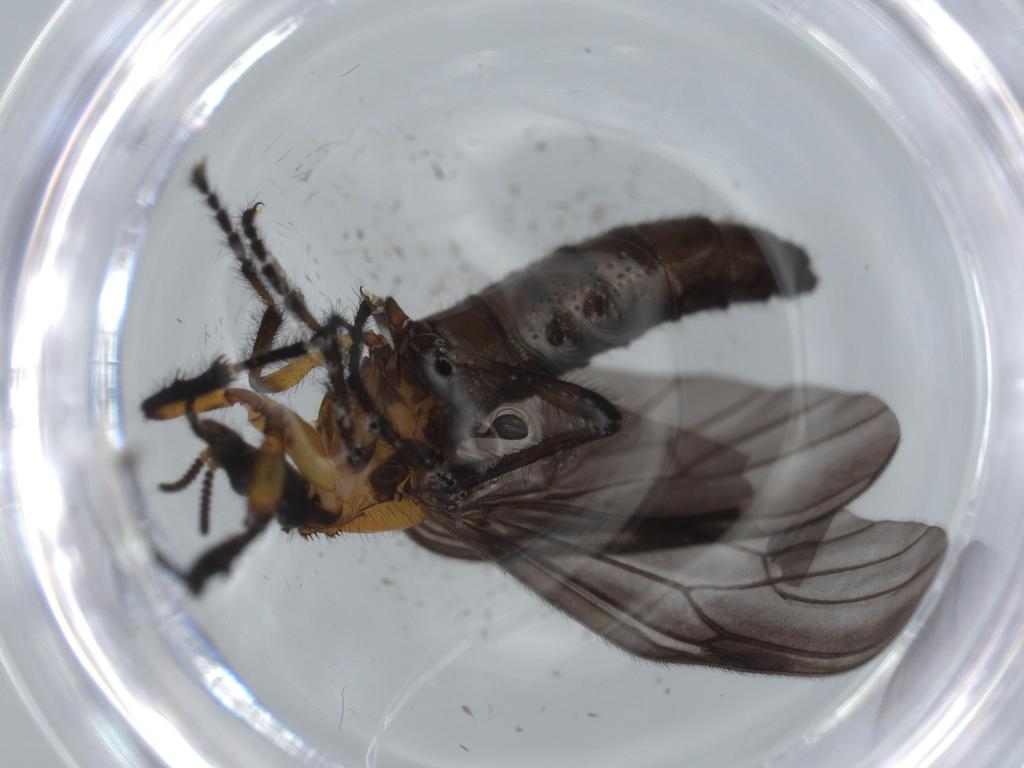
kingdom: Animalia
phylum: Arthropoda
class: Insecta
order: Diptera
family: Bibionidae
